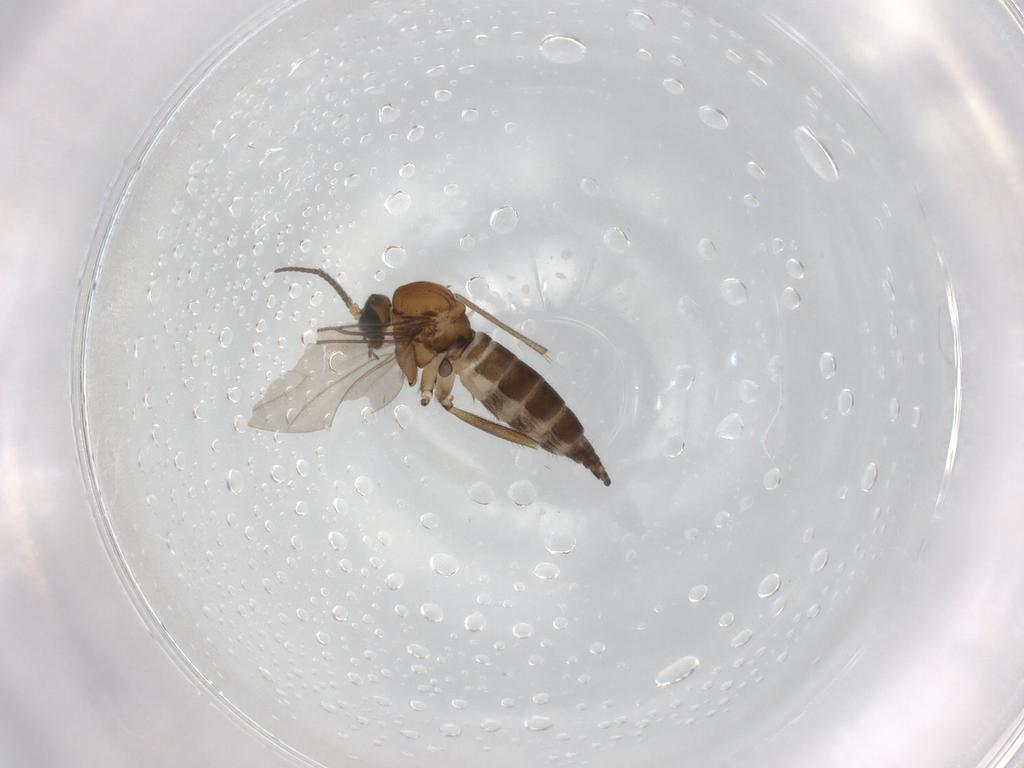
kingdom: Animalia
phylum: Arthropoda
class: Insecta
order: Diptera
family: Sciaridae
